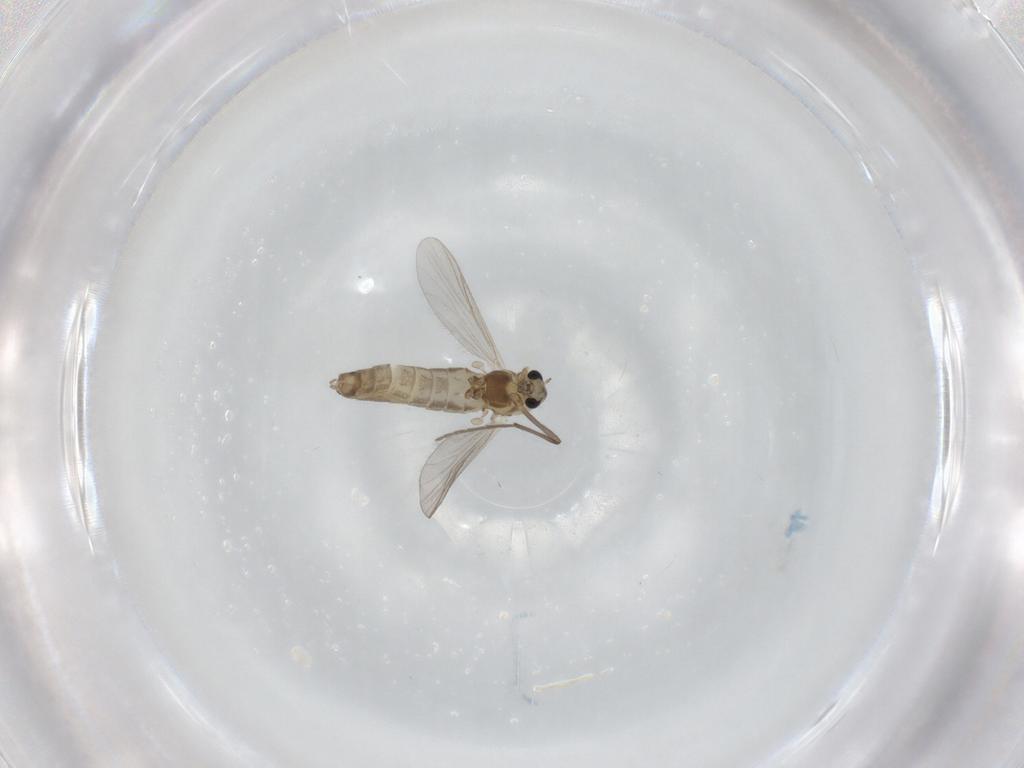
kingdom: Animalia
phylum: Arthropoda
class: Insecta
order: Diptera
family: Chironomidae
